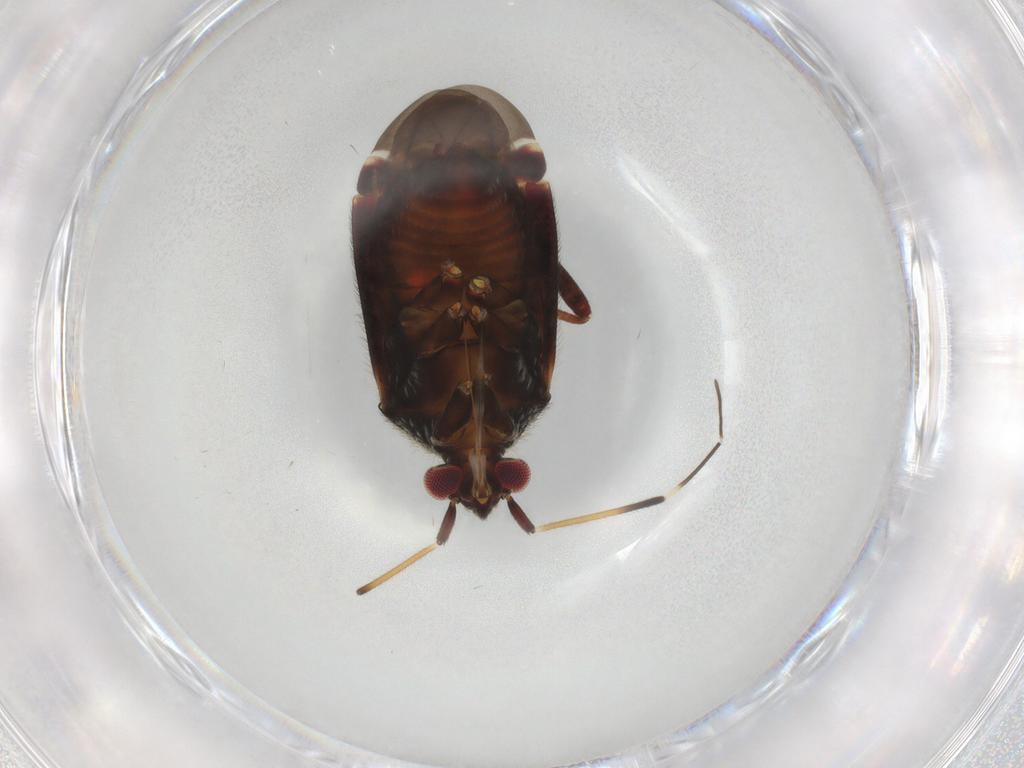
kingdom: Animalia
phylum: Arthropoda
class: Insecta
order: Hemiptera
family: Miridae
